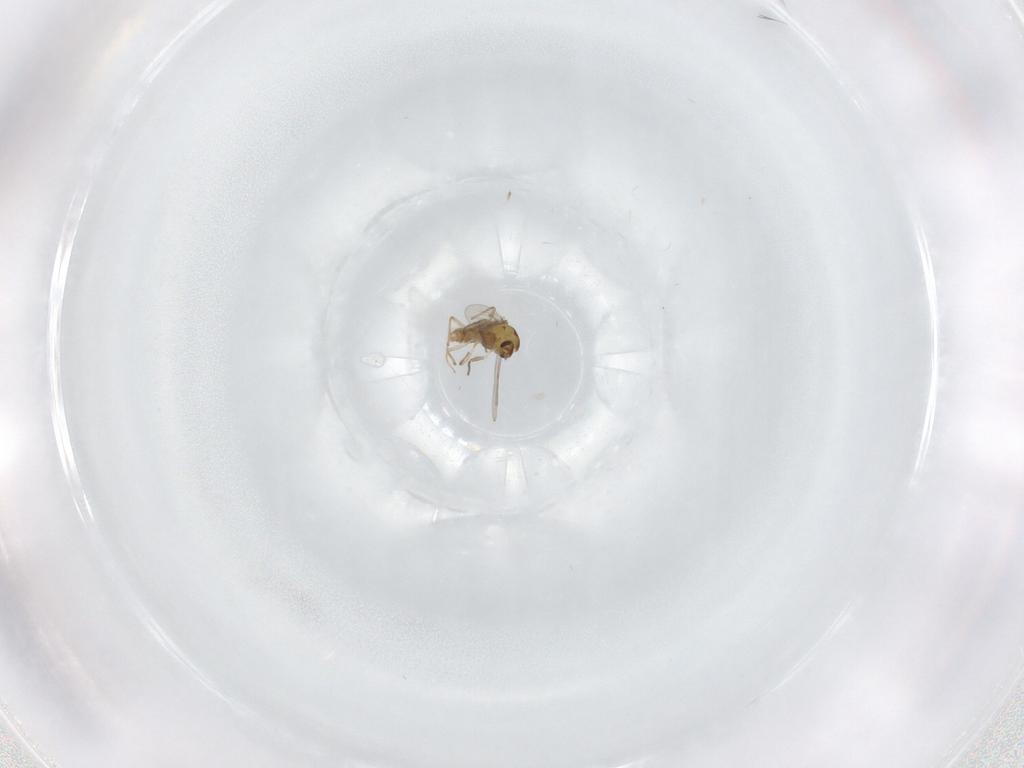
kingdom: Animalia
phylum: Arthropoda
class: Insecta
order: Diptera
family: Chironomidae
